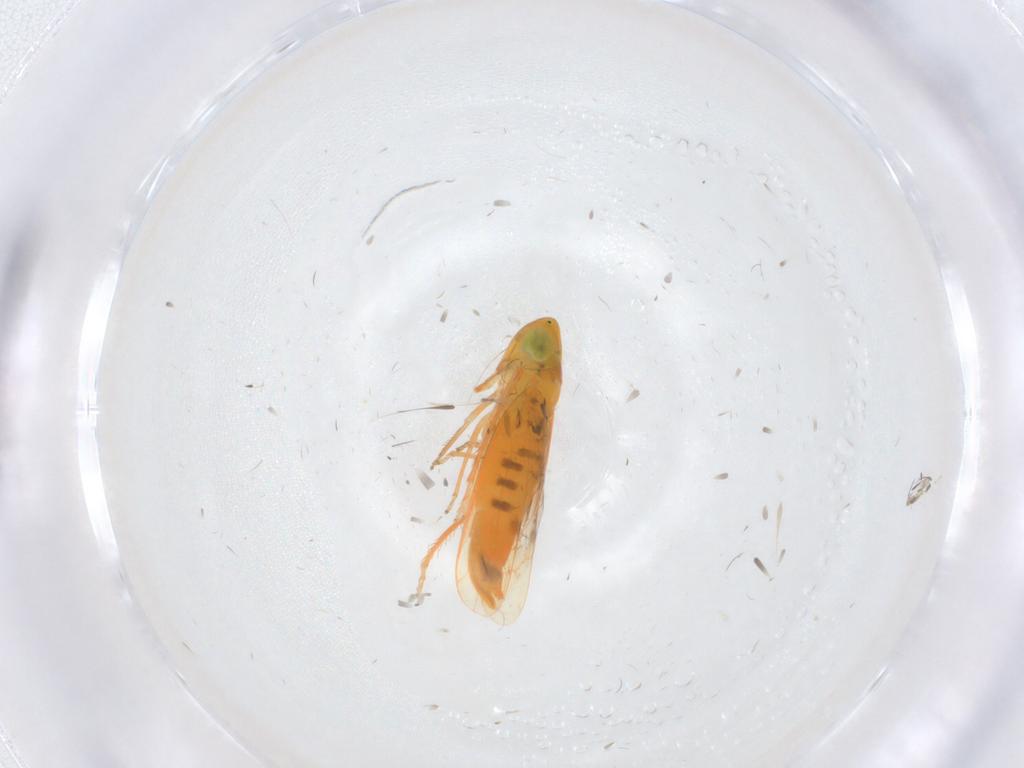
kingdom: Animalia
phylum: Arthropoda
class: Insecta
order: Hemiptera
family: Cicadellidae
